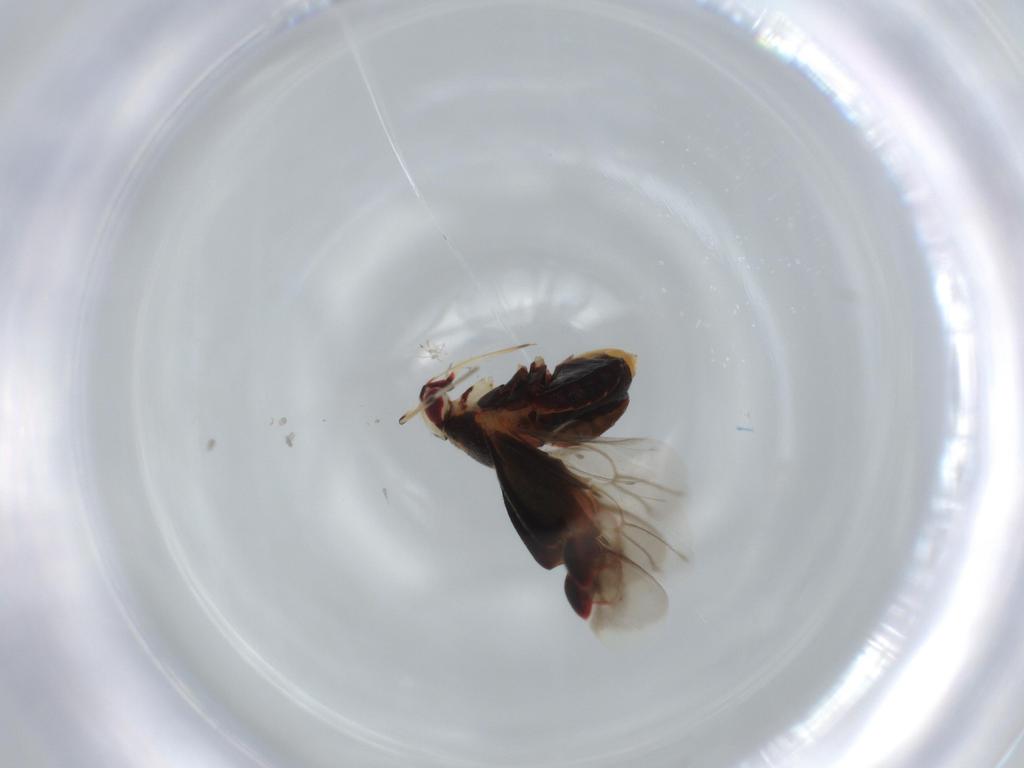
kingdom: Animalia
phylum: Arthropoda
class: Insecta
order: Hemiptera
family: Miridae
